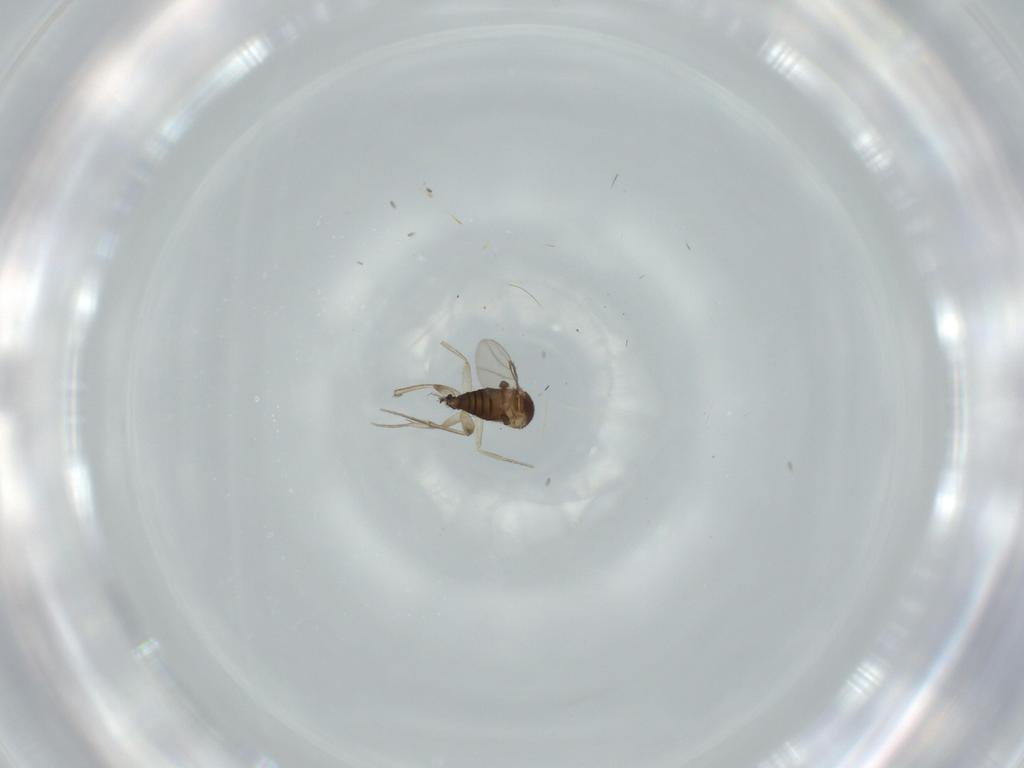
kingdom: Animalia
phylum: Arthropoda
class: Insecta
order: Diptera
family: Phoridae
